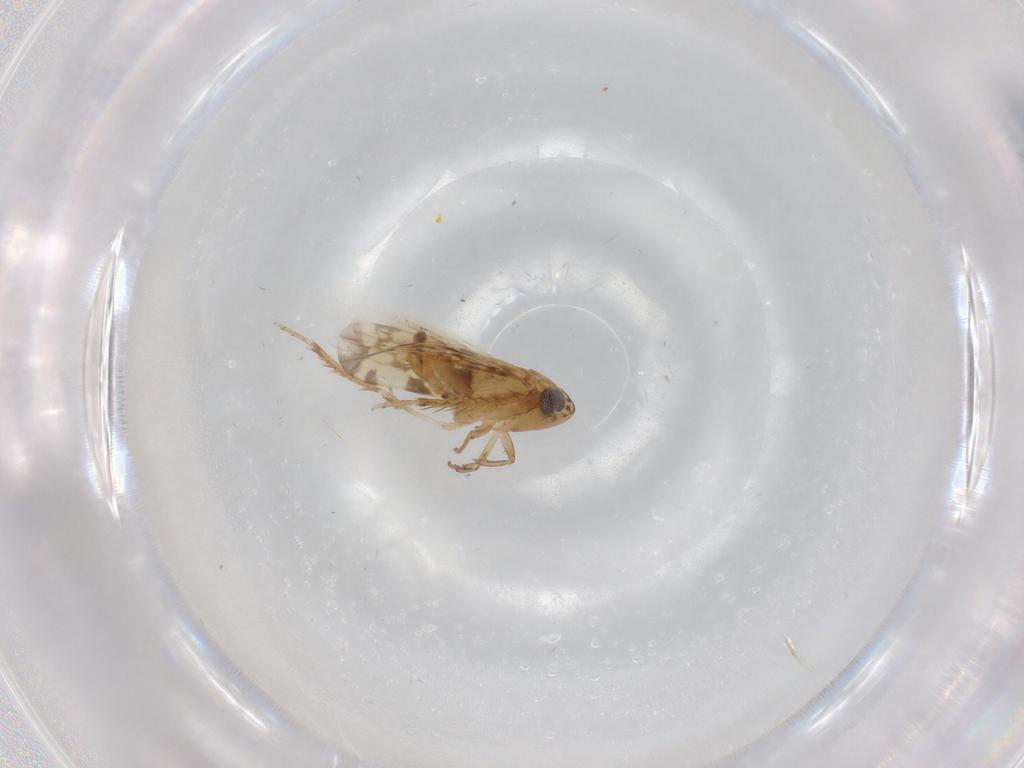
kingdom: Animalia
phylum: Arthropoda
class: Insecta
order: Hemiptera
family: Cicadellidae
